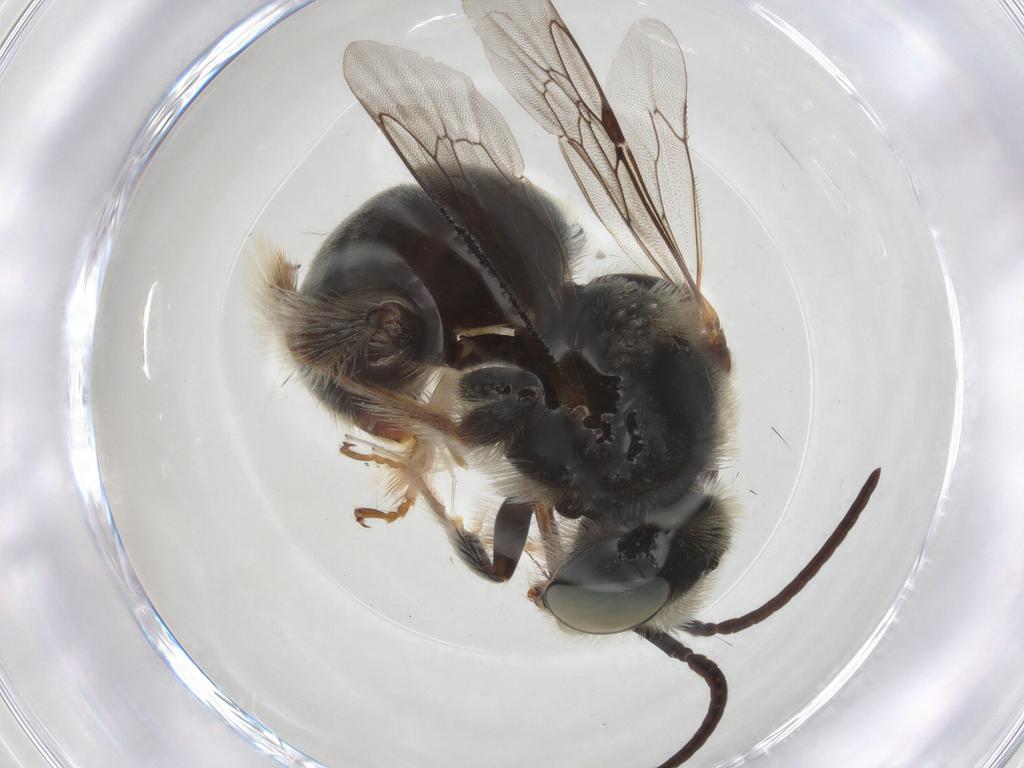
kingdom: Animalia
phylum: Arthropoda
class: Insecta
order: Hymenoptera
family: Apidae
